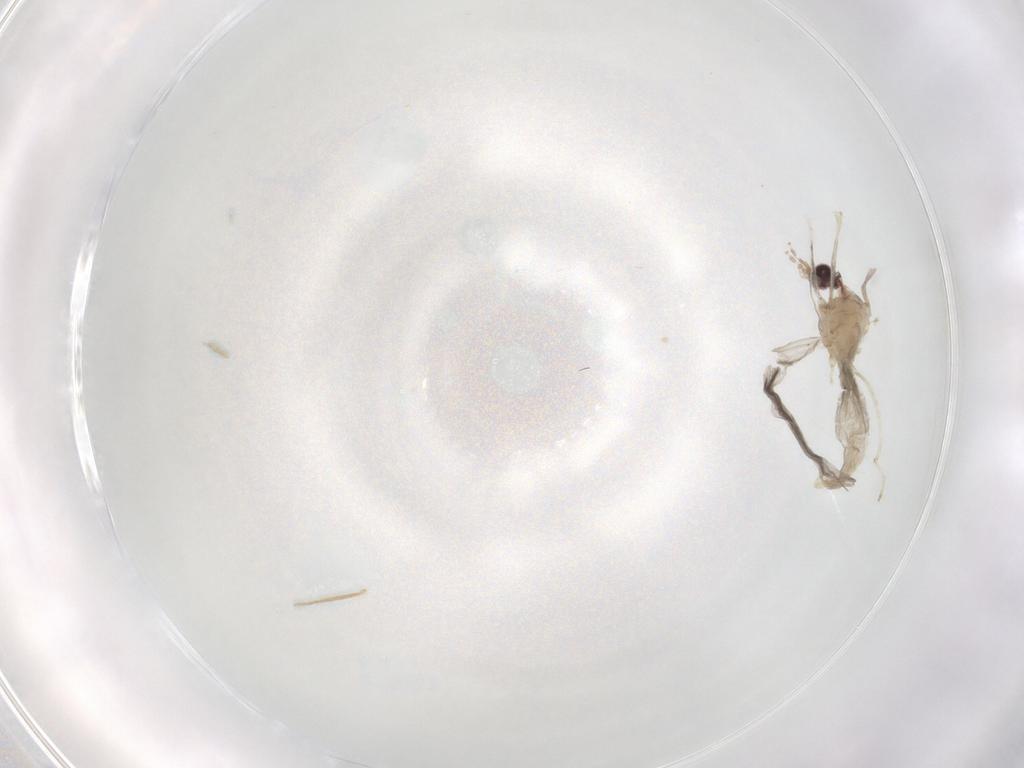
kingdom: Animalia
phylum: Arthropoda
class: Insecta
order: Diptera
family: Cecidomyiidae
